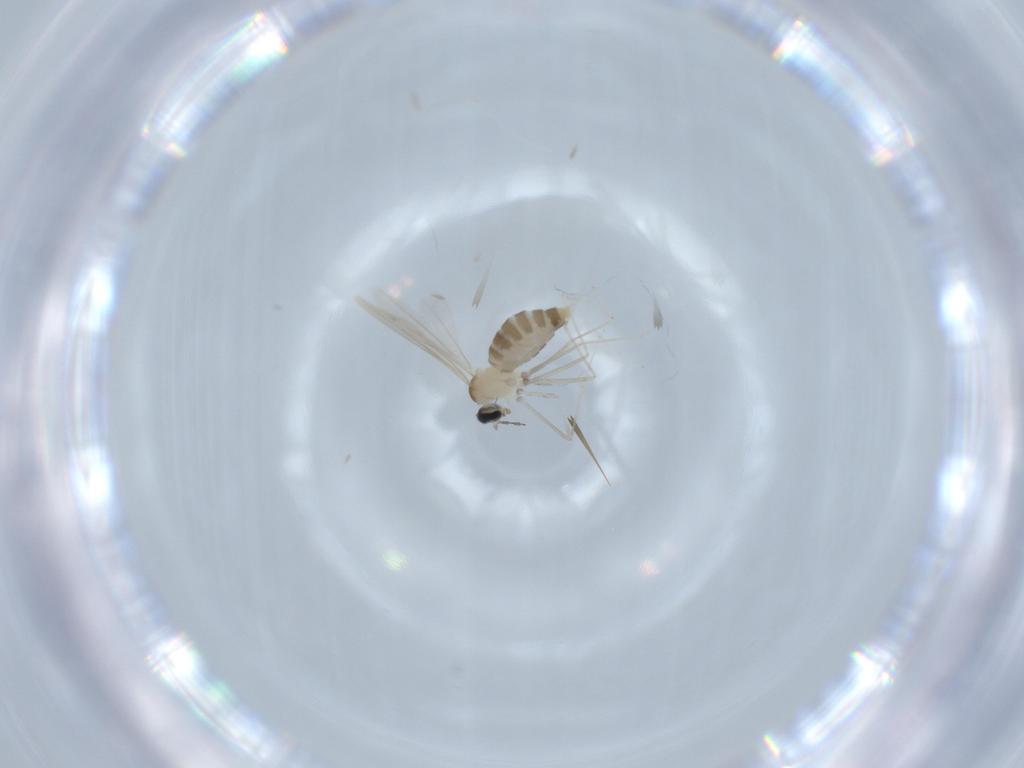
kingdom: Animalia
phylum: Arthropoda
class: Insecta
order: Diptera
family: Cecidomyiidae
